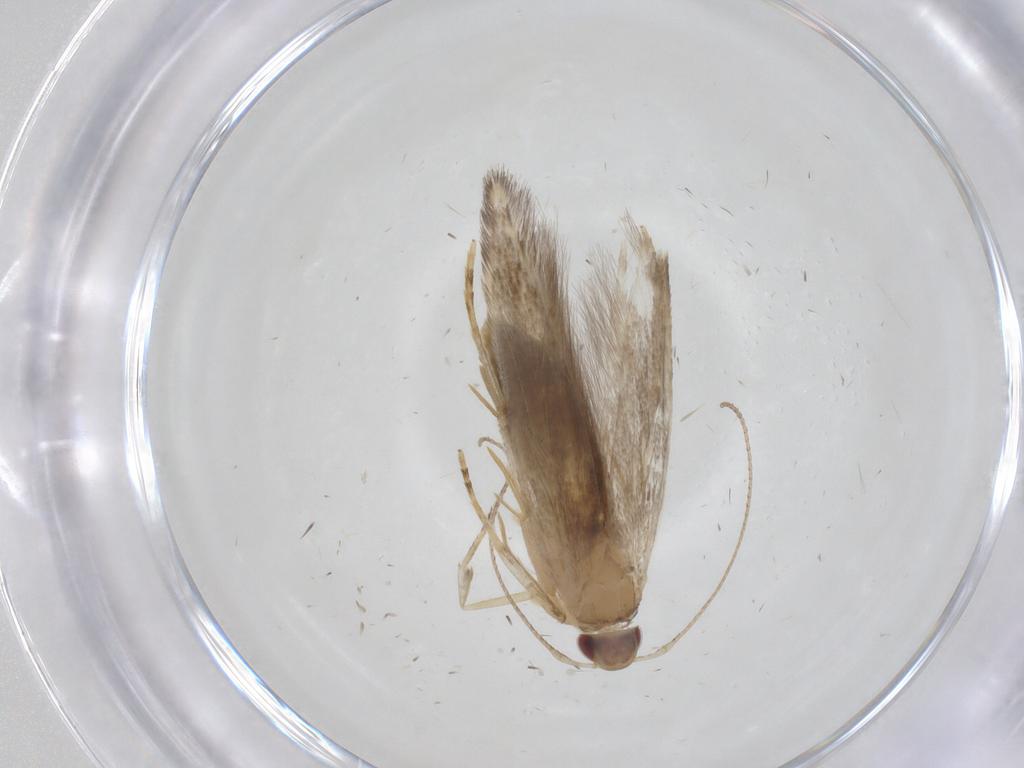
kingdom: Animalia
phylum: Arthropoda
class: Insecta
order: Lepidoptera
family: Cosmopterigidae
